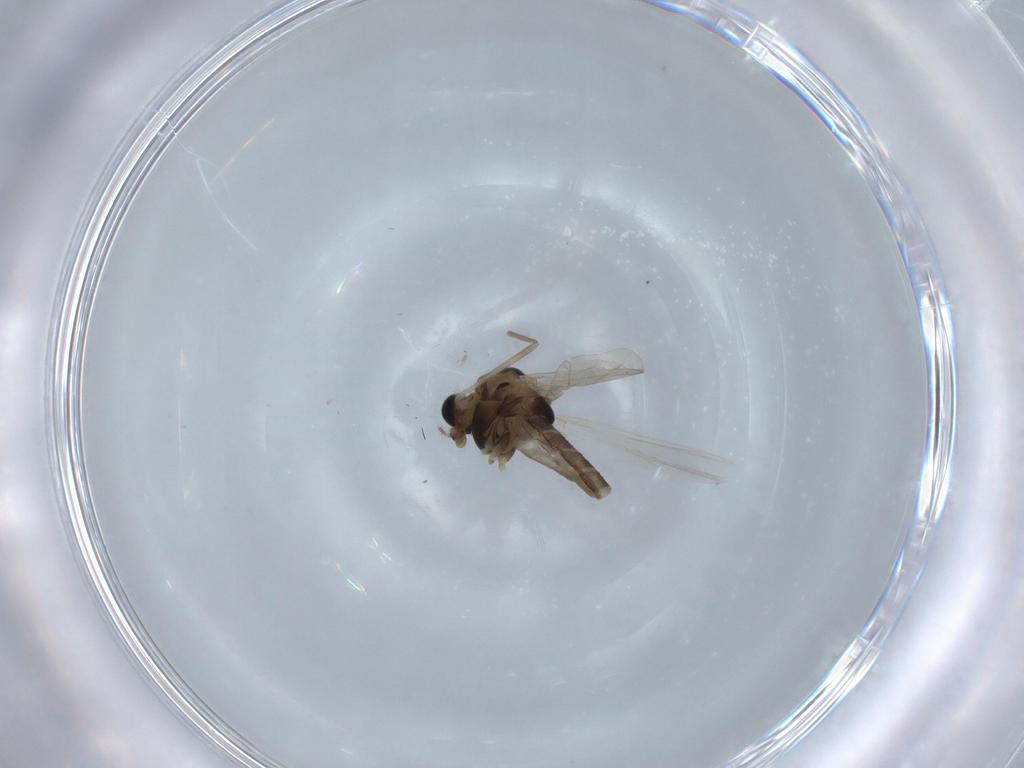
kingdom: Animalia
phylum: Arthropoda
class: Insecta
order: Diptera
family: Chironomidae
